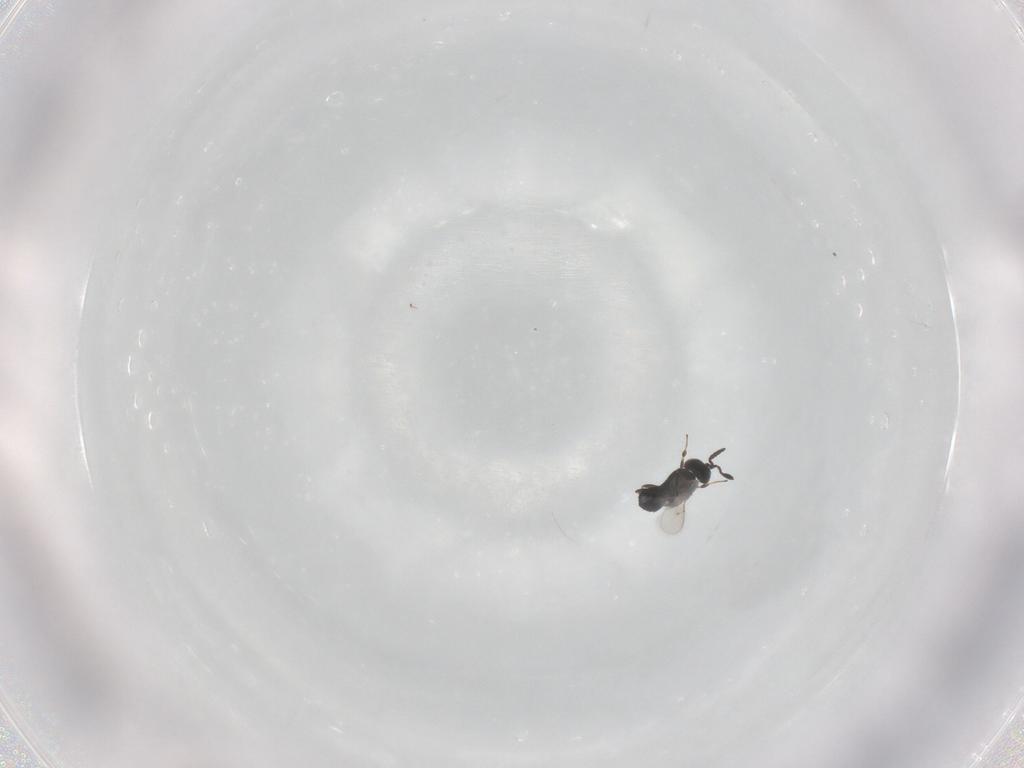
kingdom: Animalia
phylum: Arthropoda
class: Insecta
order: Hymenoptera
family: Scelionidae
